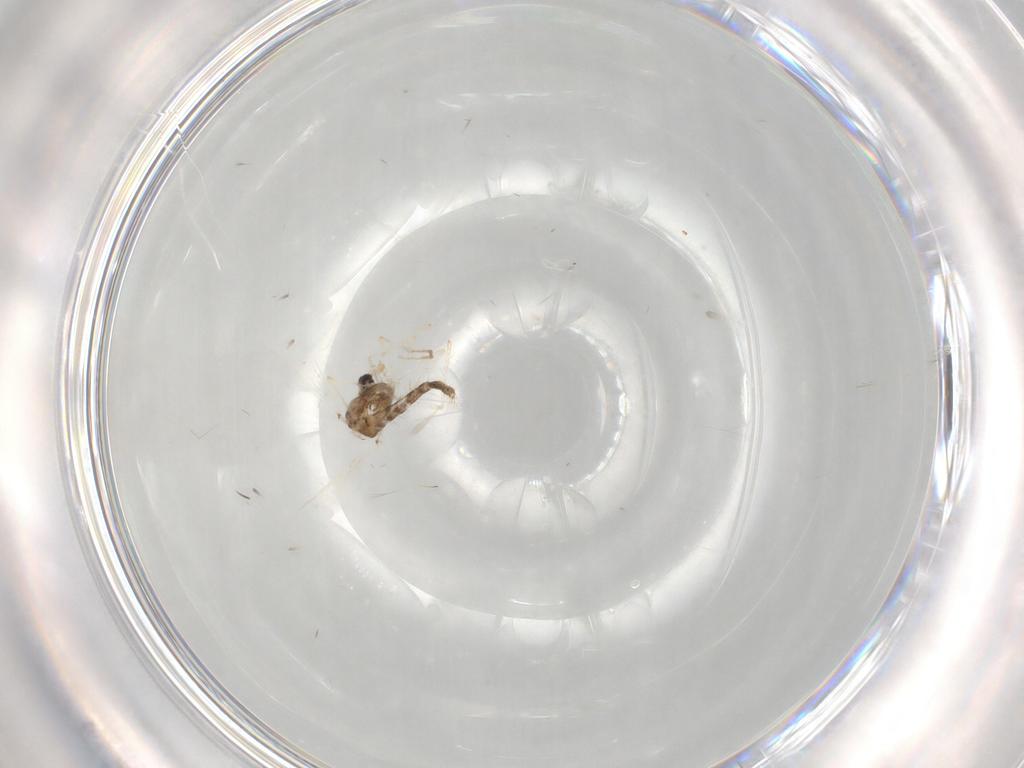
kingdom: Animalia
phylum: Arthropoda
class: Insecta
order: Diptera
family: Chironomidae
